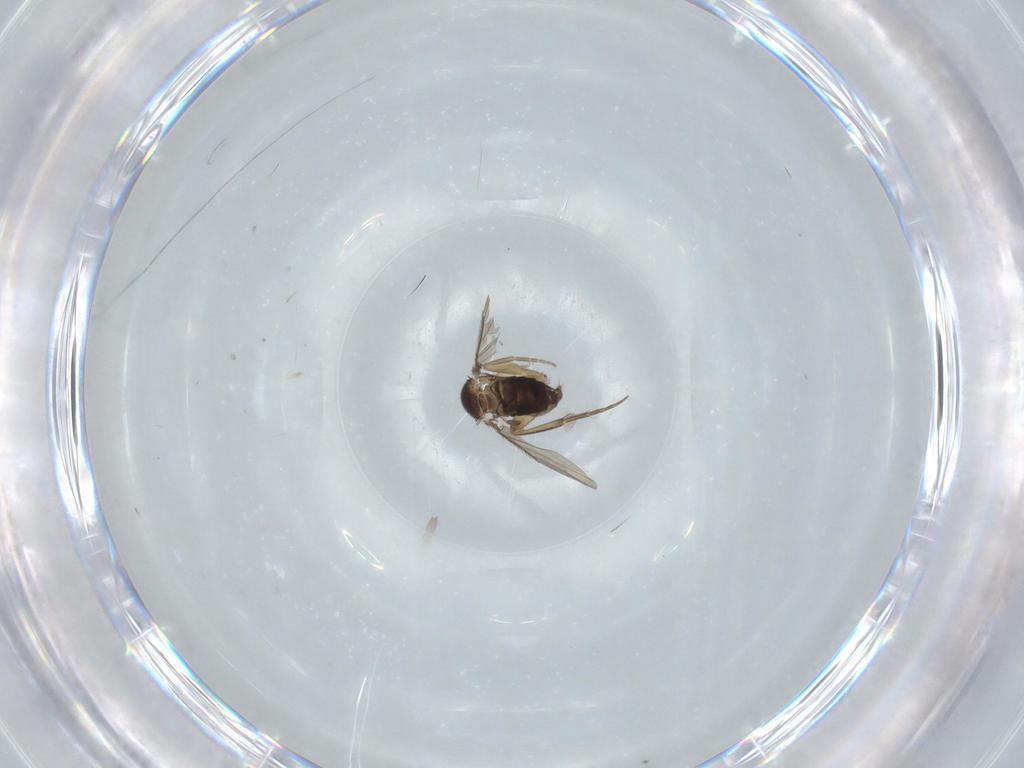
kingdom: Animalia
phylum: Arthropoda
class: Insecta
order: Diptera
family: Phoridae
